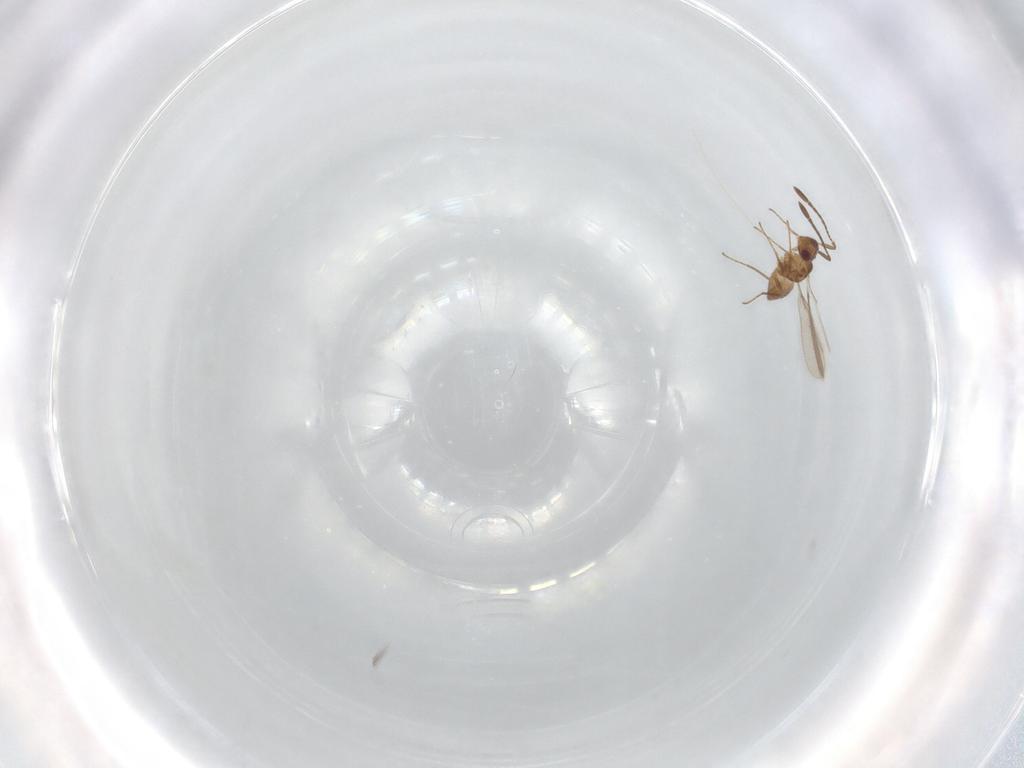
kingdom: Animalia
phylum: Arthropoda
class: Insecta
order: Hymenoptera
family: Mymaridae
